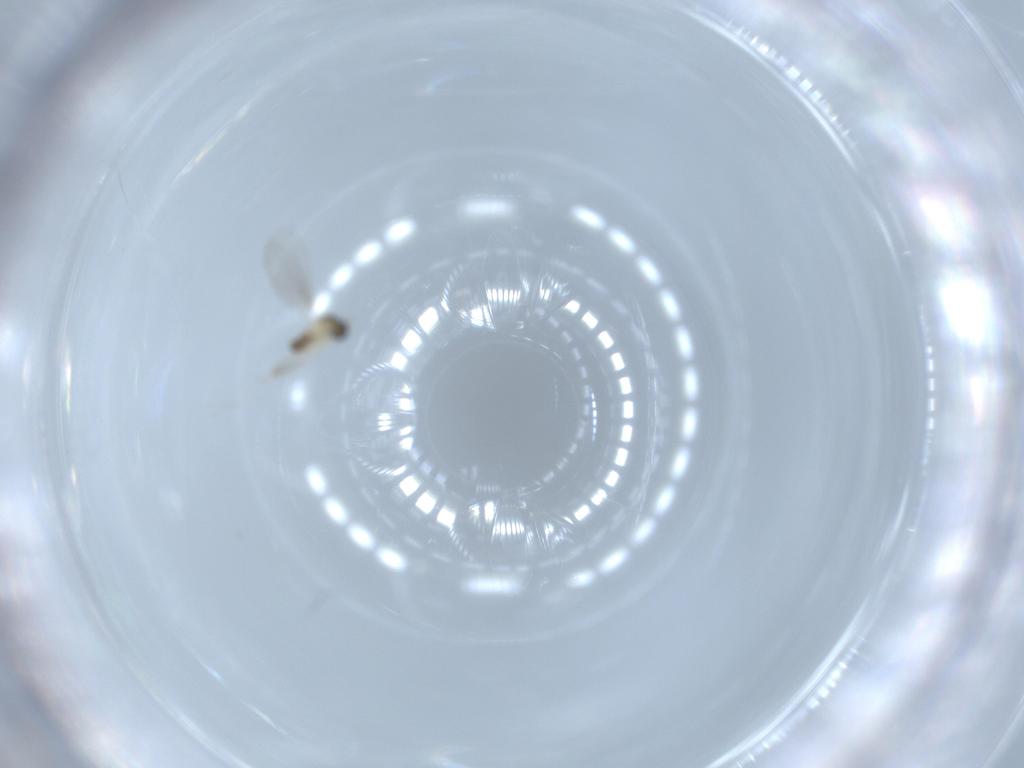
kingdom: Animalia
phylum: Arthropoda
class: Insecta
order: Diptera
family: Cecidomyiidae
